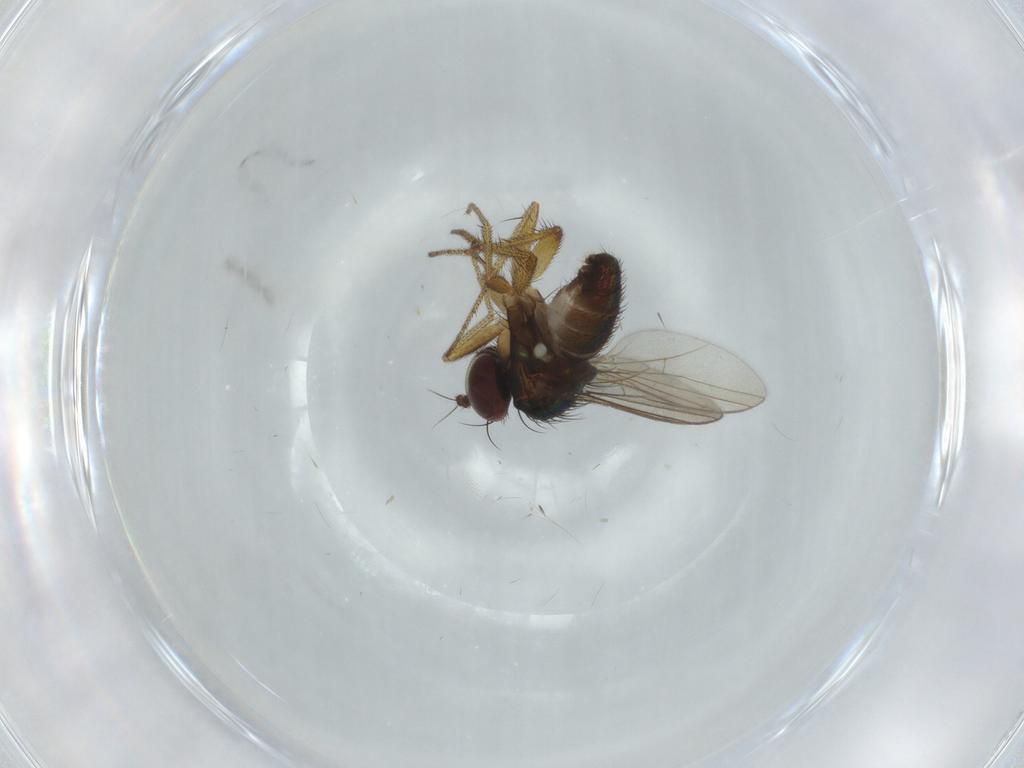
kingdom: Animalia
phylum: Arthropoda
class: Insecta
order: Diptera
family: Dolichopodidae
